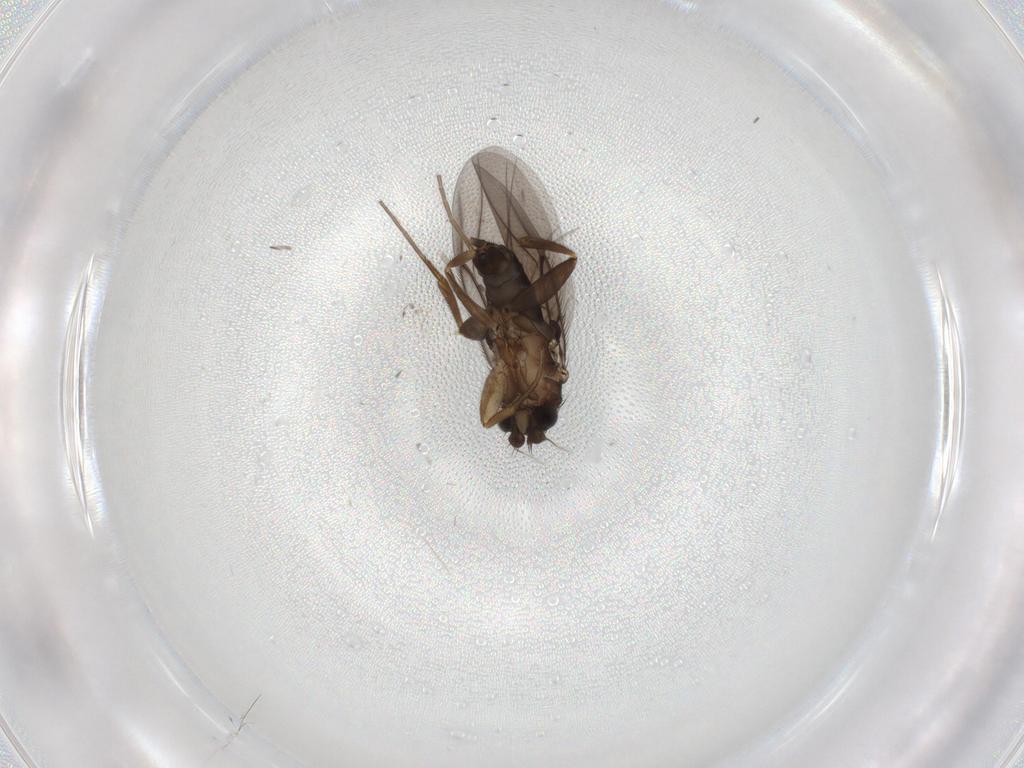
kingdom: Animalia
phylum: Arthropoda
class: Insecta
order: Diptera
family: Phoridae
